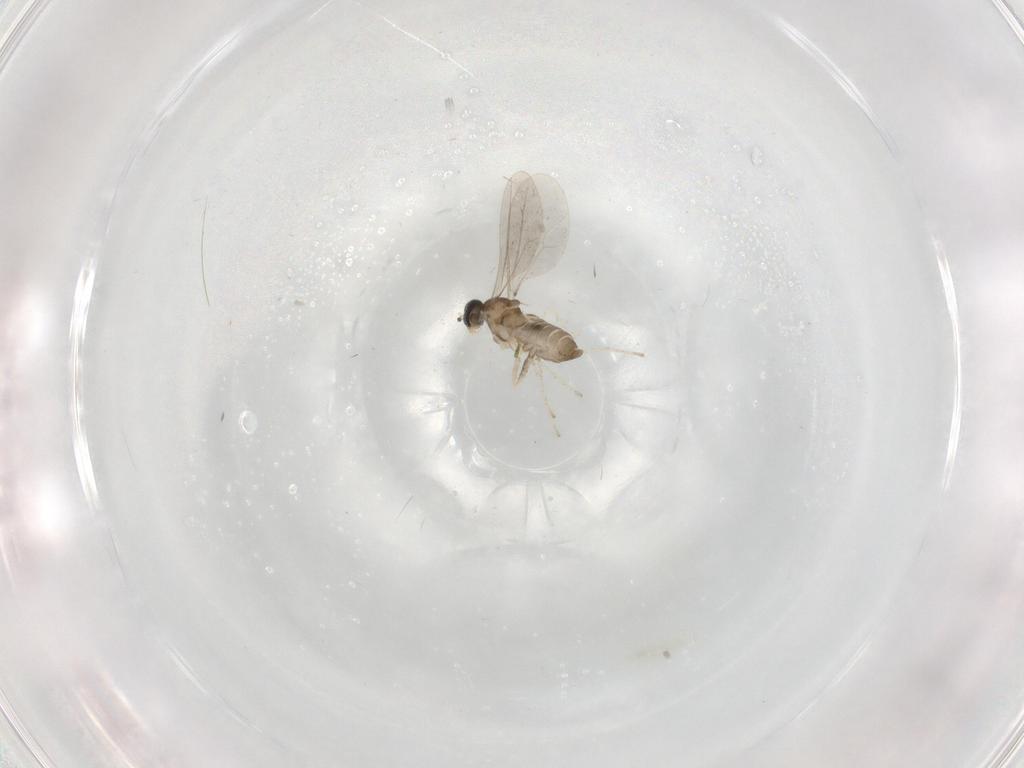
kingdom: Animalia
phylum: Arthropoda
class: Insecta
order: Diptera
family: Cecidomyiidae
